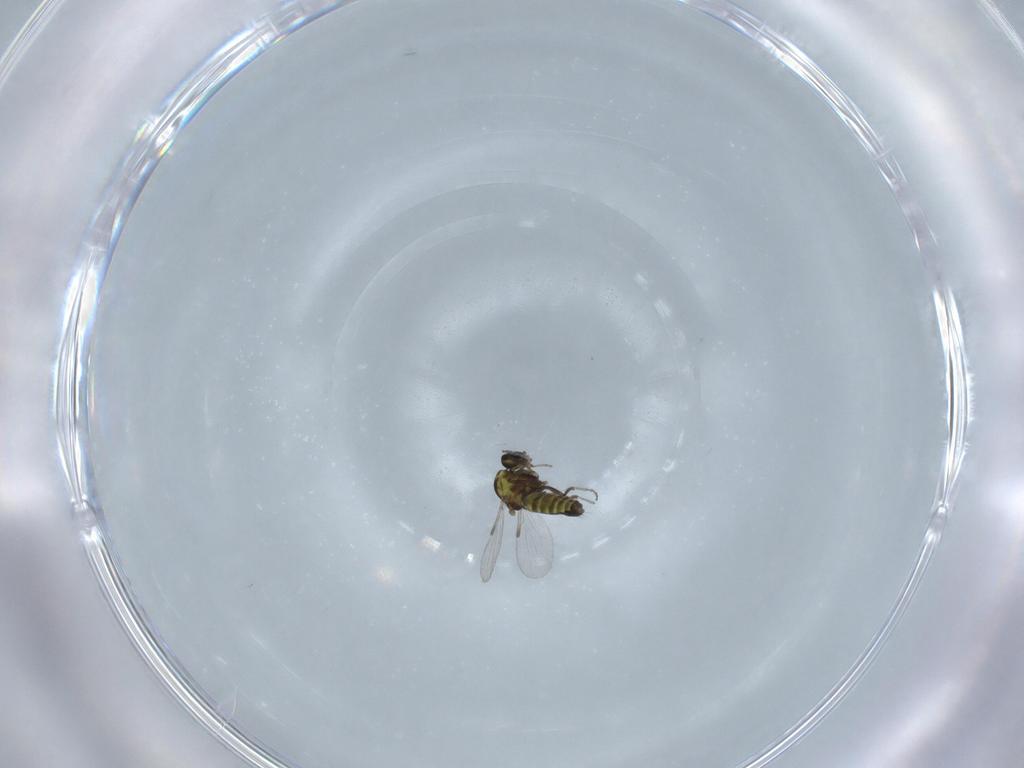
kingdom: Animalia
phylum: Arthropoda
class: Insecta
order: Diptera
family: Ceratopogonidae
